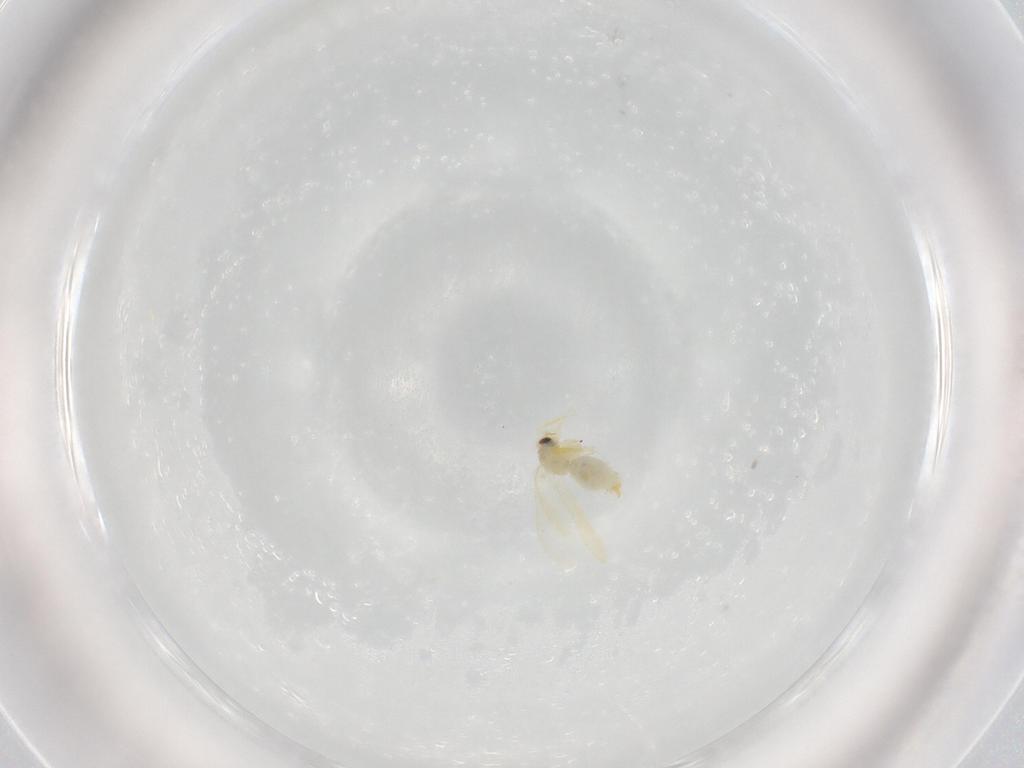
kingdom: Animalia
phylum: Arthropoda
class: Insecta
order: Hemiptera
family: Aleyrodidae
